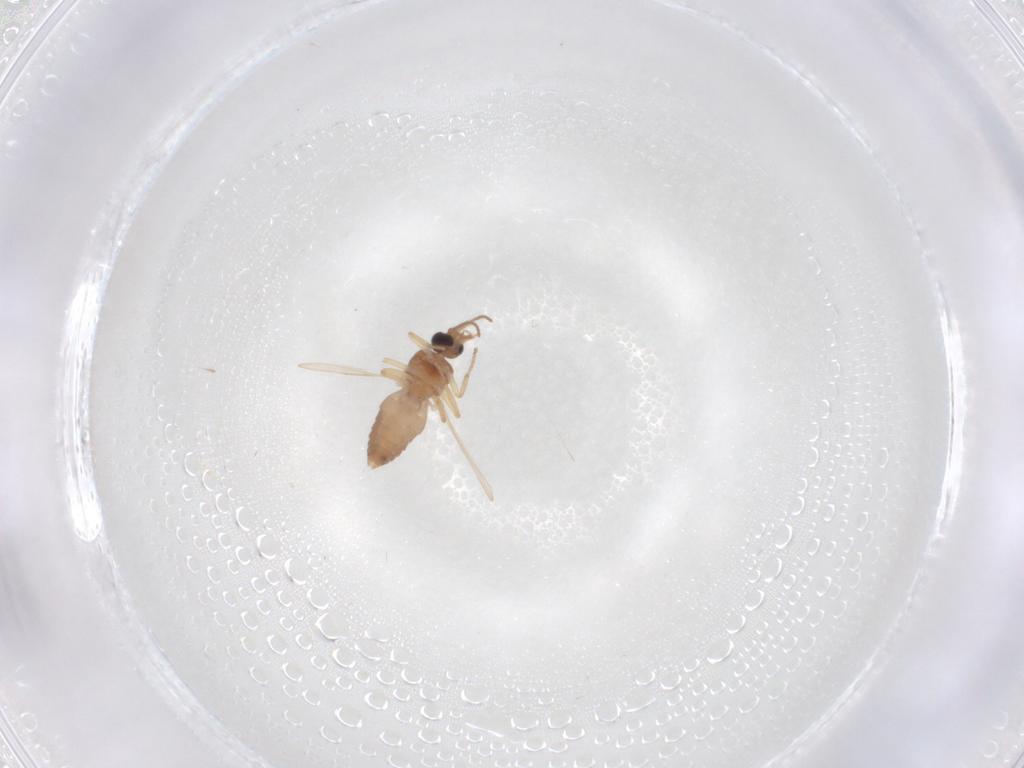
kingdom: Animalia
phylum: Arthropoda
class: Insecta
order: Diptera
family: Ceratopogonidae
